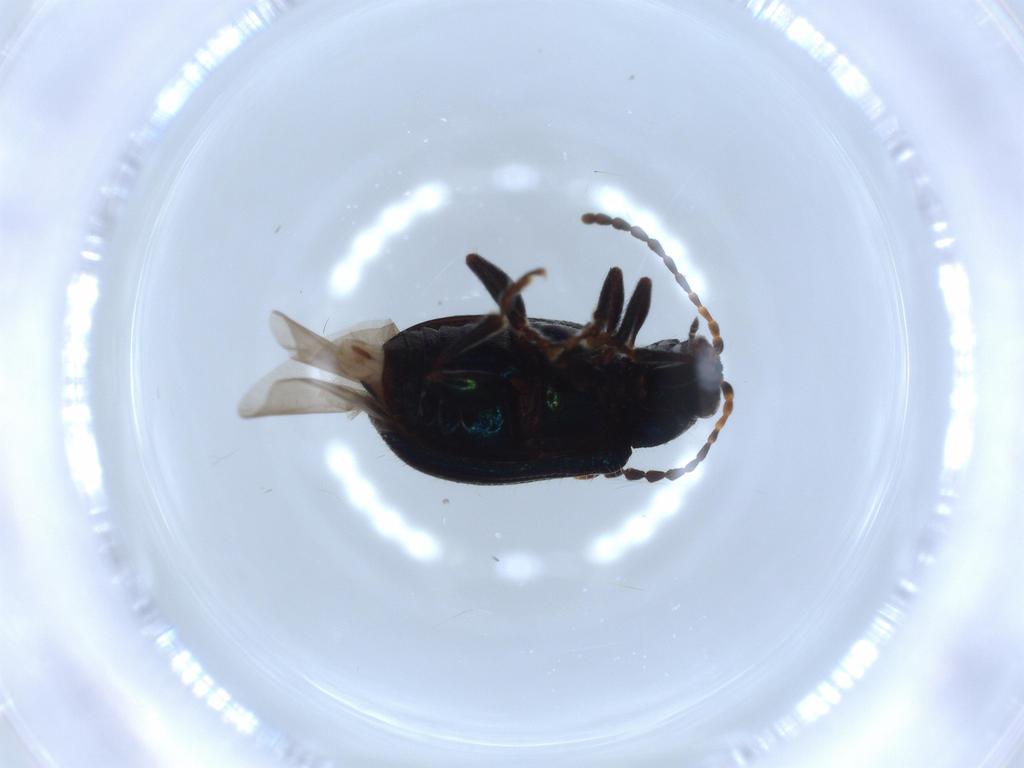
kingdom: Animalia
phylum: Arthropoda
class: Insecta
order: Coleoptera
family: Chrysomelidae
